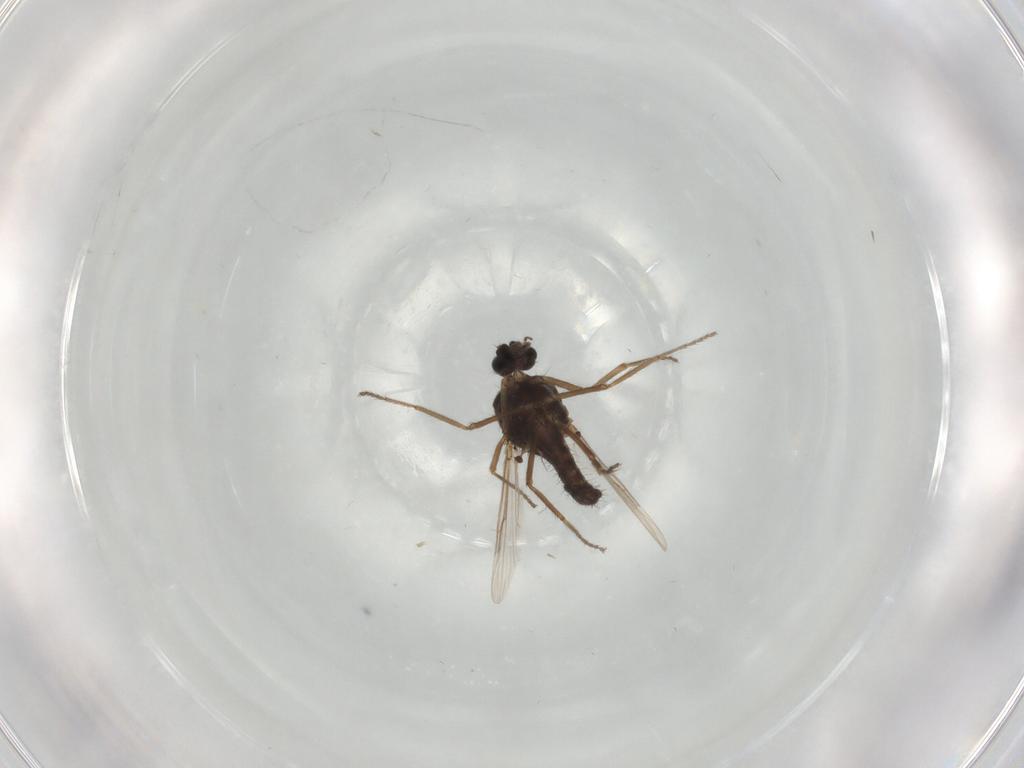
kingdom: Animalia
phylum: Arthropoda
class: Insecta
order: Diptera
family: Ceratopogonidae
